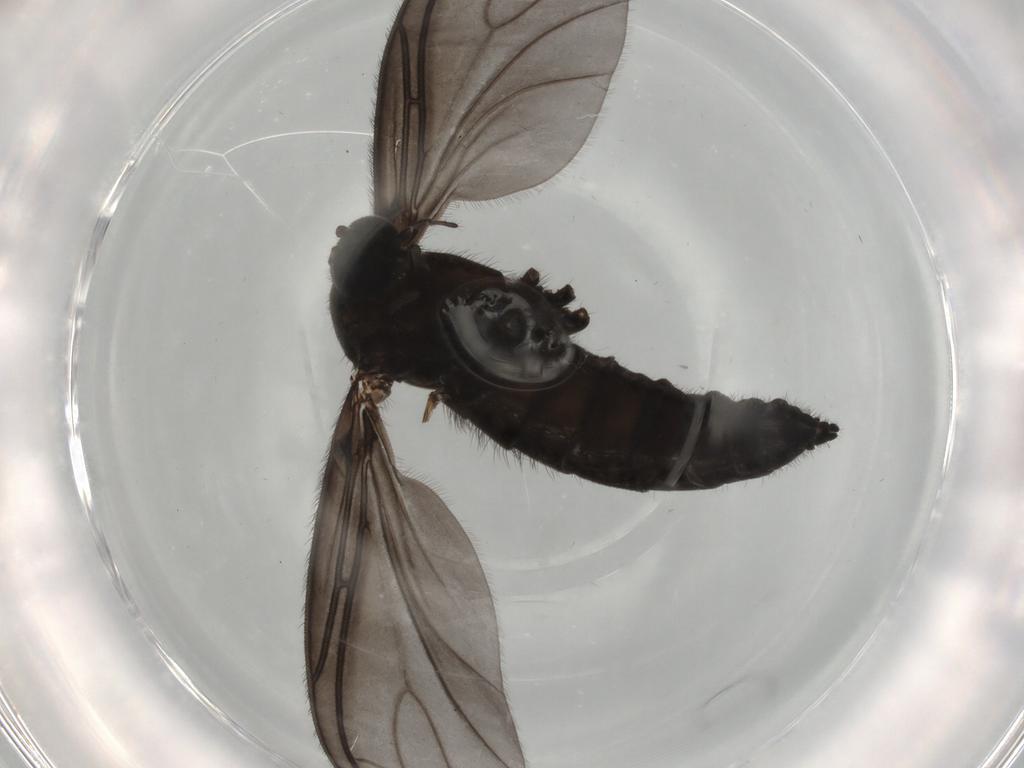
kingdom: Animalia
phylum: Arthropoda
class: Insecta
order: Diptera
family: Sciaridae
